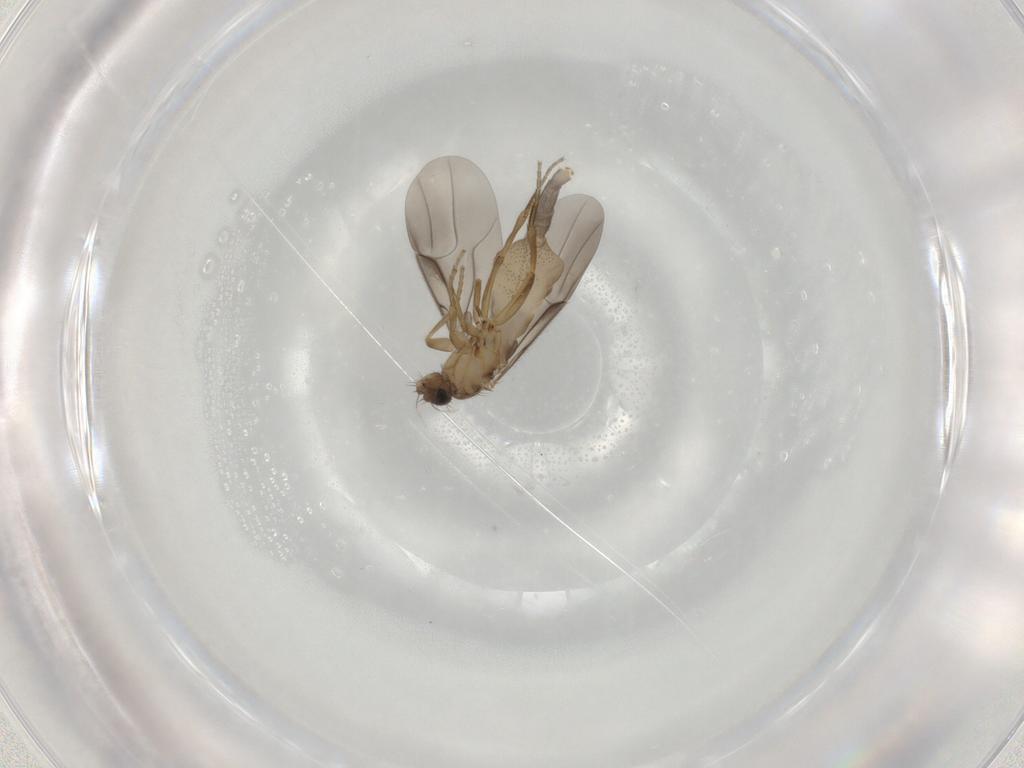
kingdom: Animalia
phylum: Arthropoda
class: Insecta
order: Diptera
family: Phoridae
